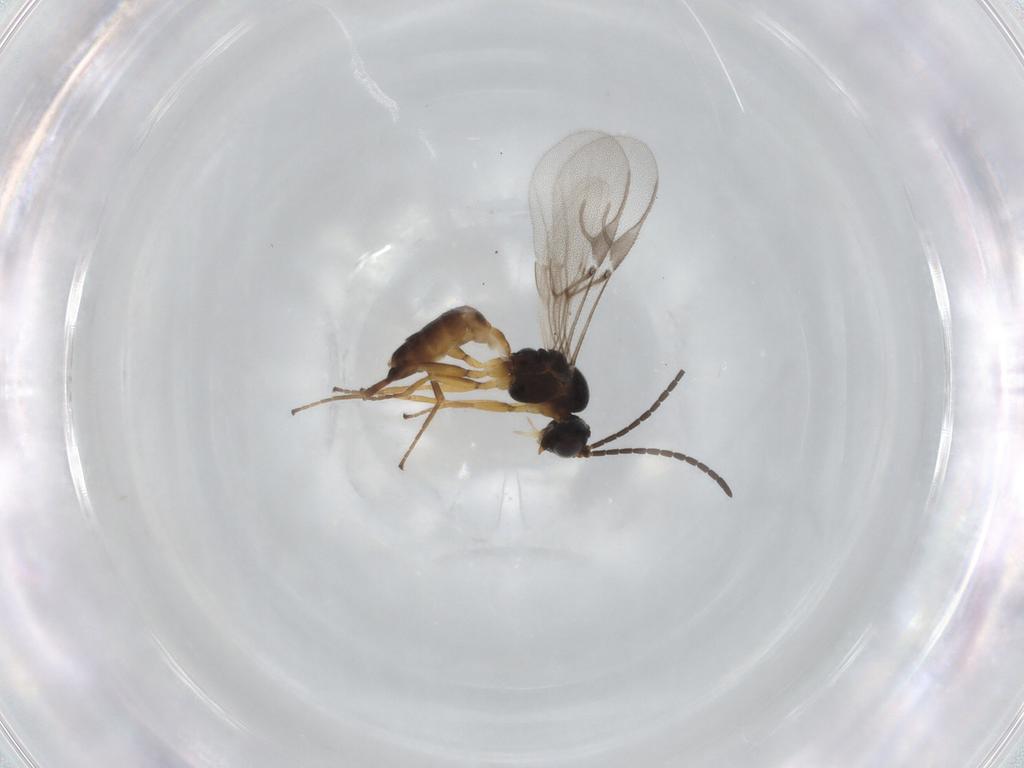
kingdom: Animalia
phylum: Arthropoda
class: Insecta
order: Hymenoptera
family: Braconidae
